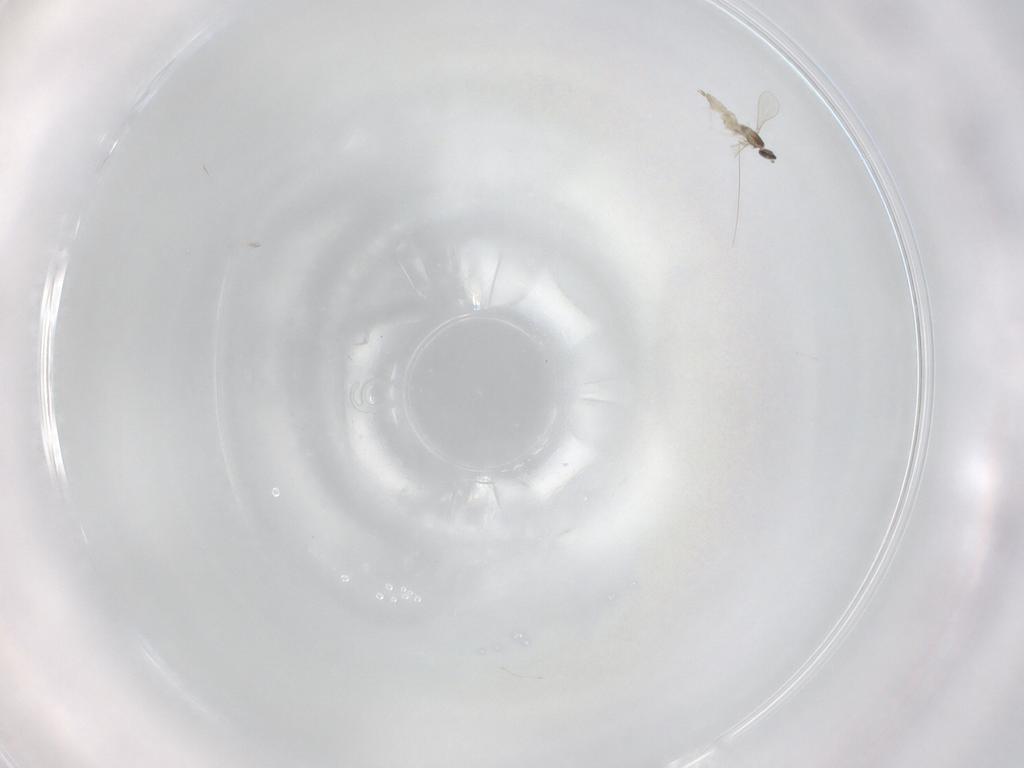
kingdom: Animalia
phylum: Arthropoda
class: Insecta
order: Diptera
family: Cecidomyiidae
